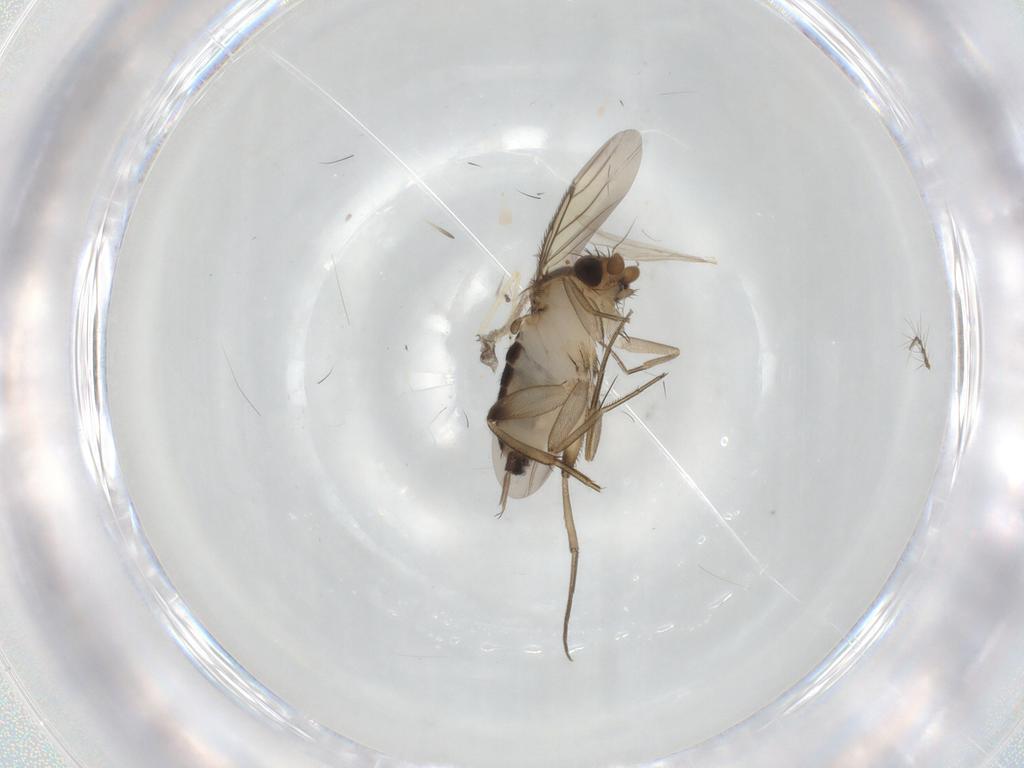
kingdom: Animalia
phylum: Arthropoda
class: Insecta
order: Diptera
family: Phoridae
